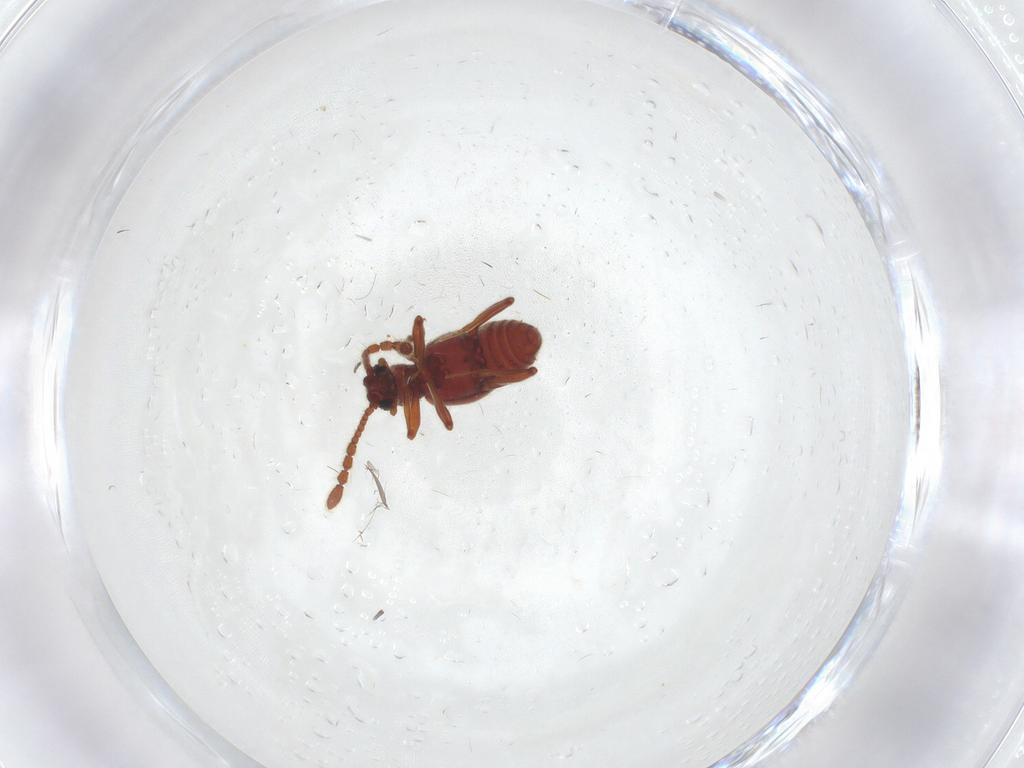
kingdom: Animalia
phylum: Arthropoda
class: Insecta
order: Coleoptera
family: Staphylinidae
